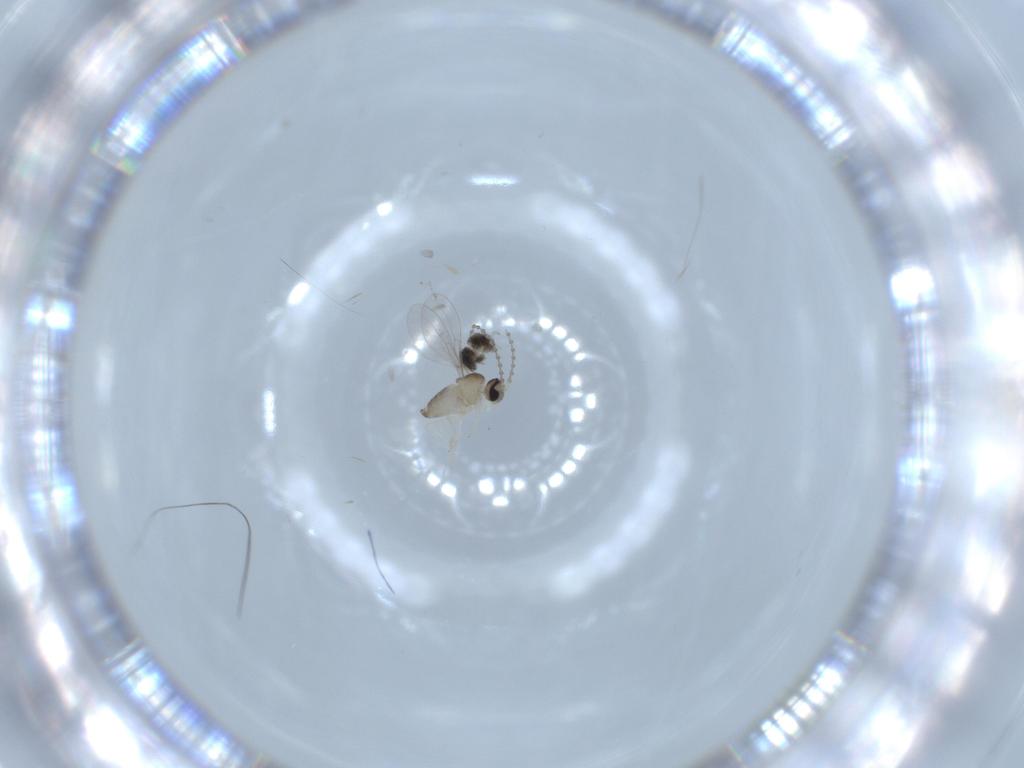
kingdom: Animalia
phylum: Arthropoda
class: Insecta
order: Diptera
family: Cecidomyiidae
